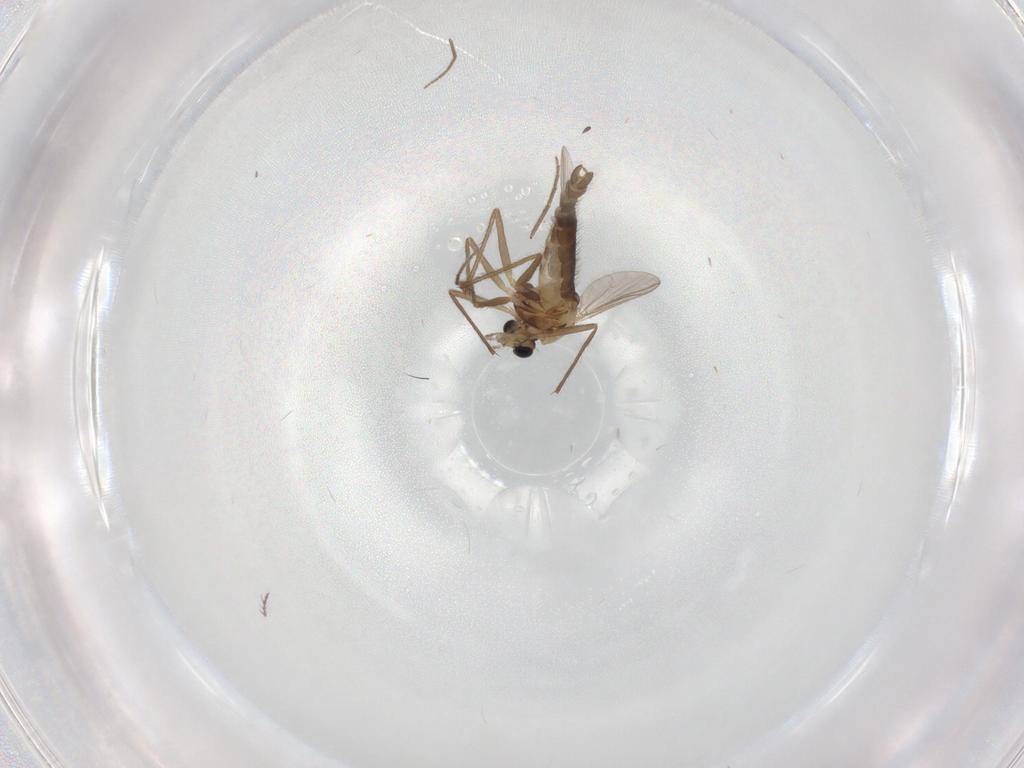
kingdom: Animalia
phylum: Arthropoda
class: Insecta
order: Diptera
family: Chironomidae
